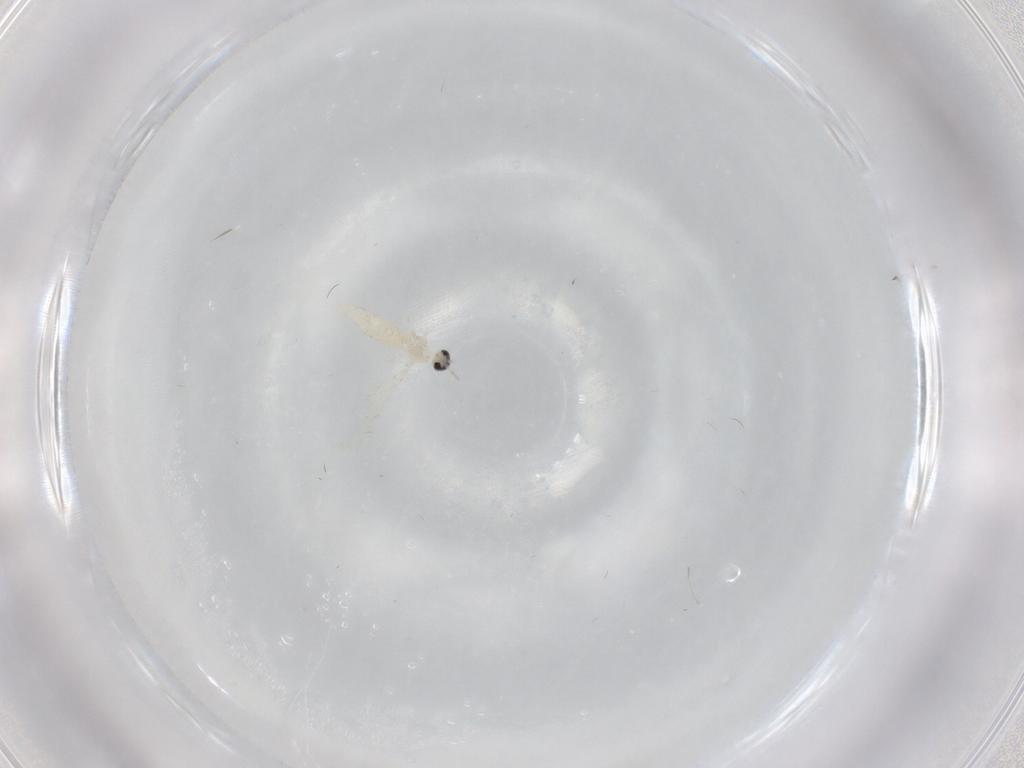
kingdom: Animalia
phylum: Arthropoda
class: Insecta
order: Diptera
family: Cecidomyiidae
